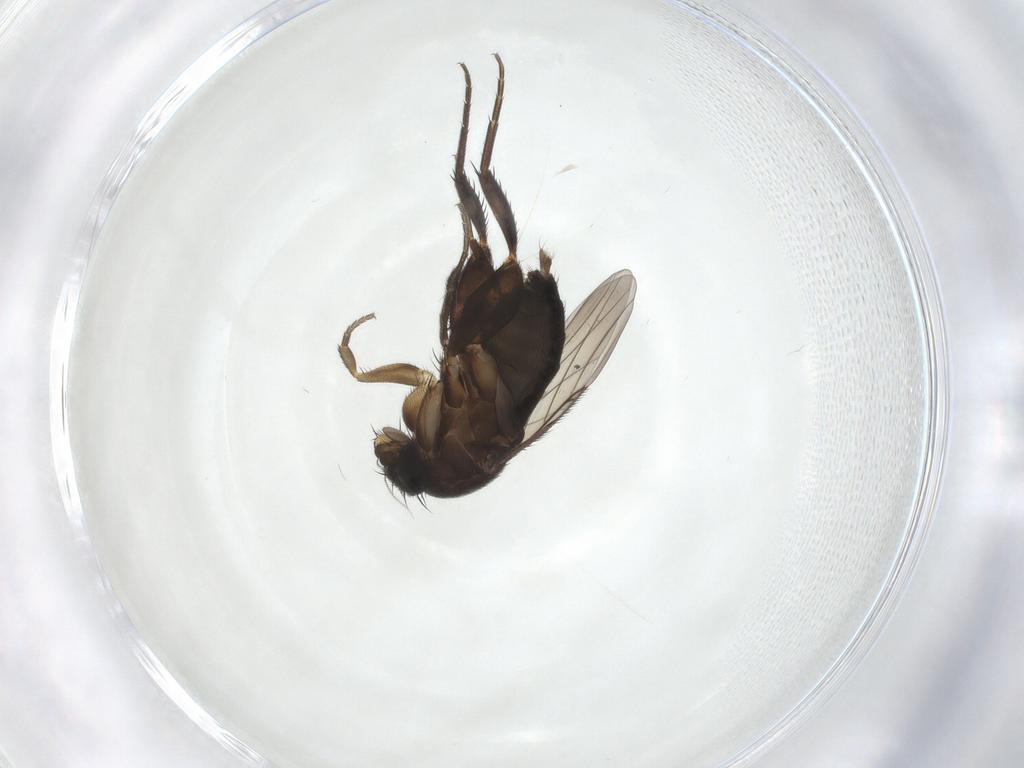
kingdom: Animalia
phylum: Arthropoda
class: Insecta
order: Diptera
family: Phoridae
